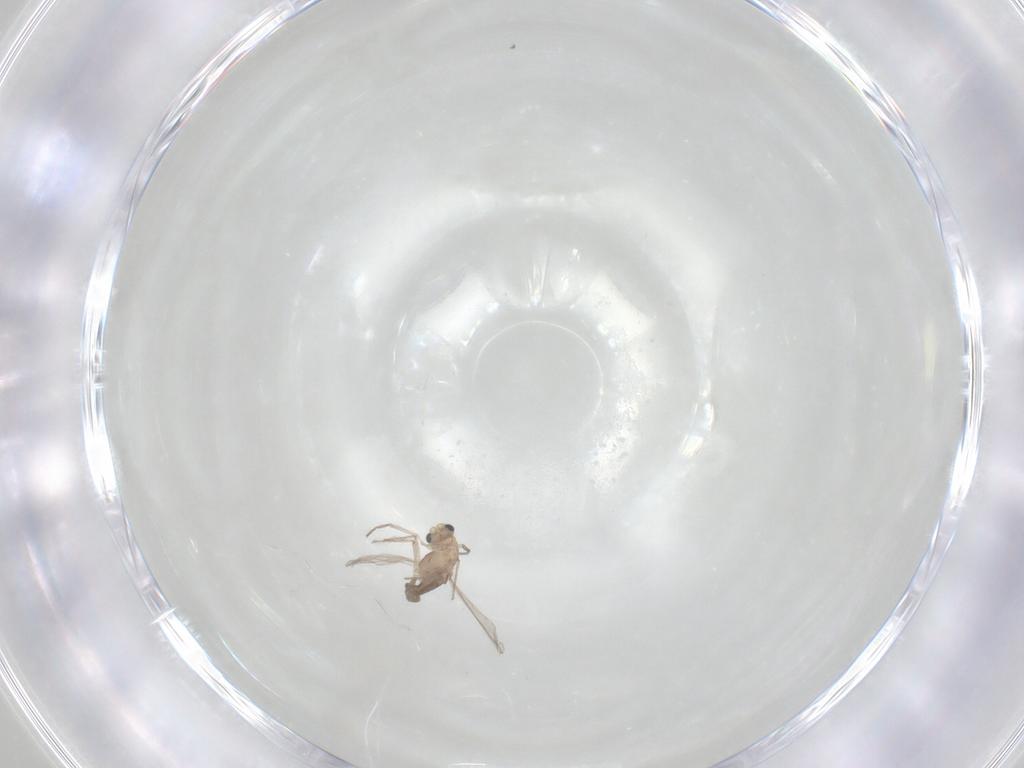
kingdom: Animalia
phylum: Arthropoda
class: Insecta
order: Diptera
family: Chironomidae
